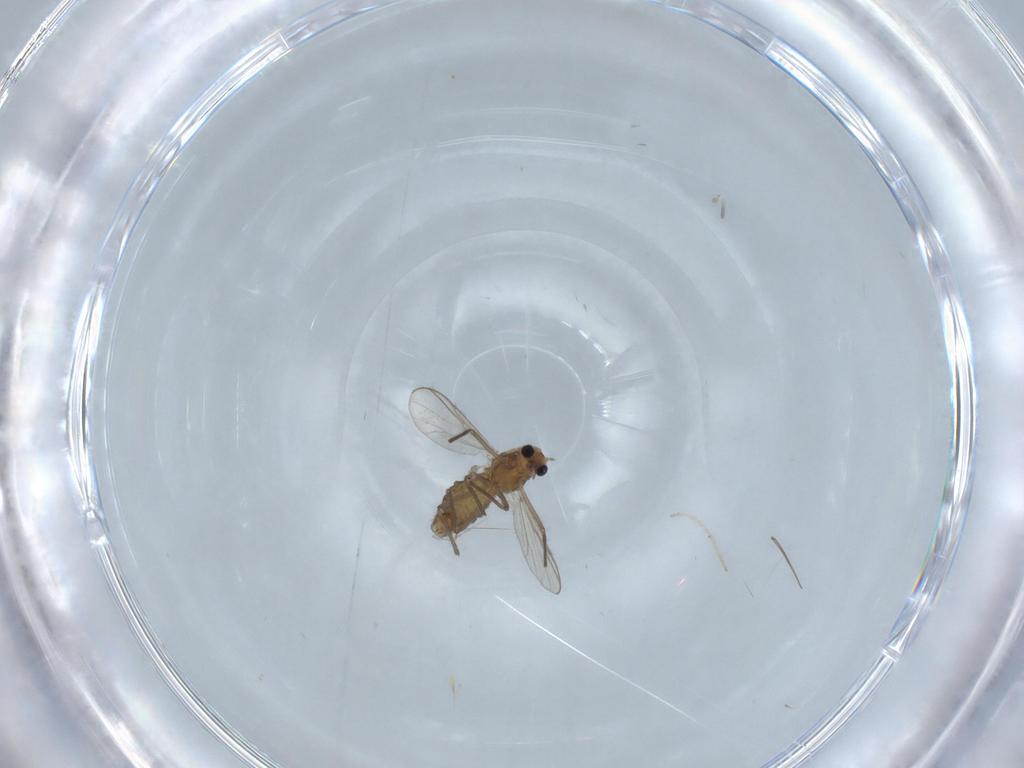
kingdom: Animalia
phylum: Arthropoda
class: Insecta
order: Diptera
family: Chironomidae
